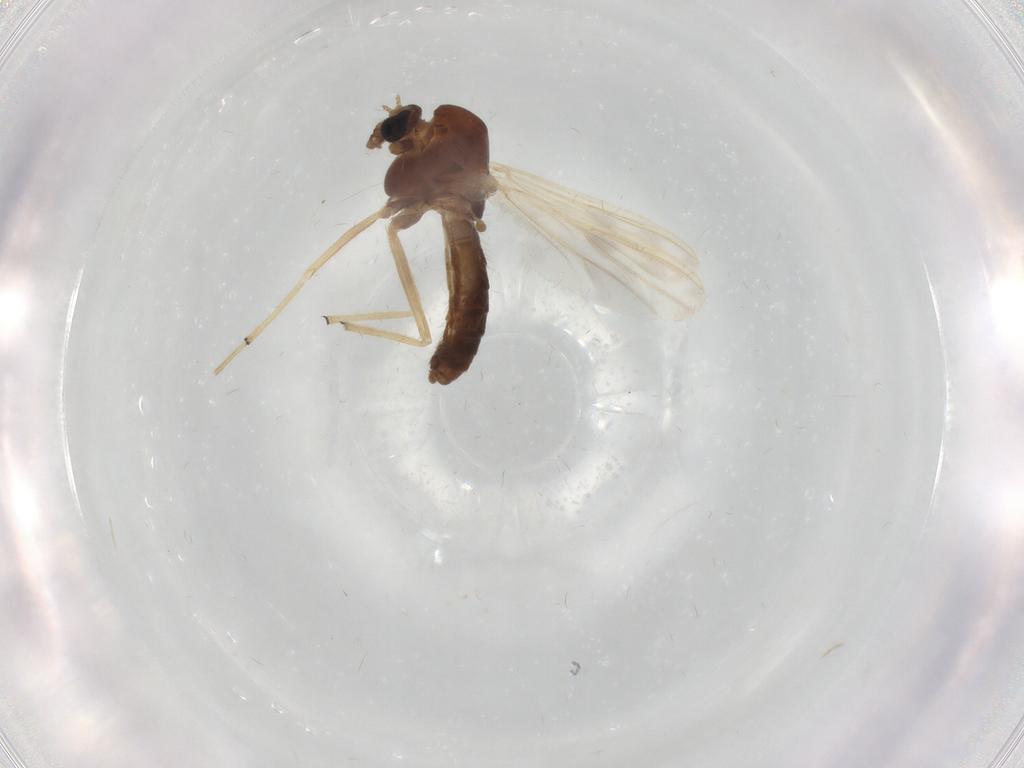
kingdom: Animalia
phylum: Arthropoda
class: Insecta
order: Diptera
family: Chironomidae
